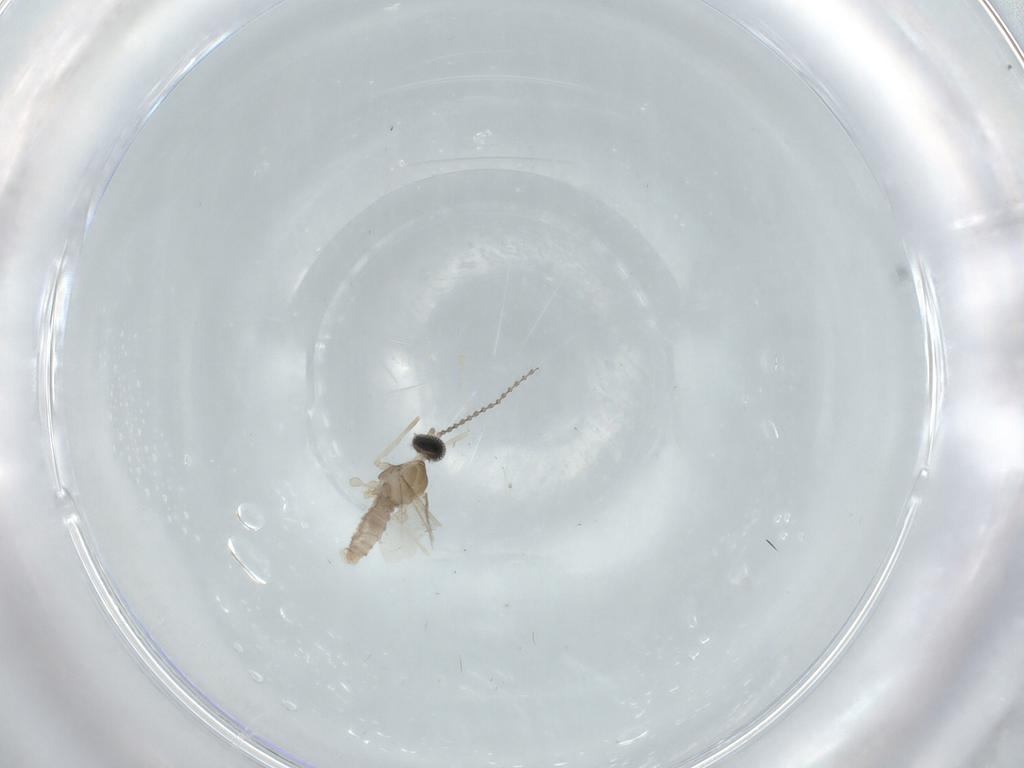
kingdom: Animalia
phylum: Arthropoda
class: Insecta
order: Diptera
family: Cecidomyiidae
